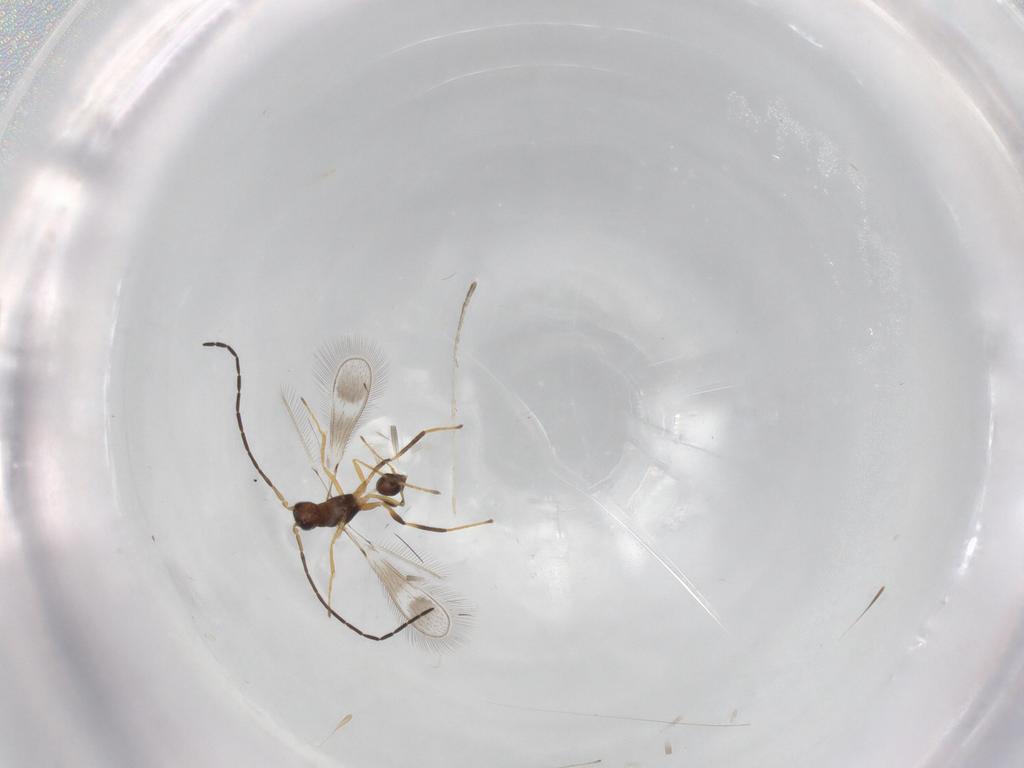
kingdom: Animalia
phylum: Arthropoda
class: Insecta
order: Hymenoptera
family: Mymaridae
